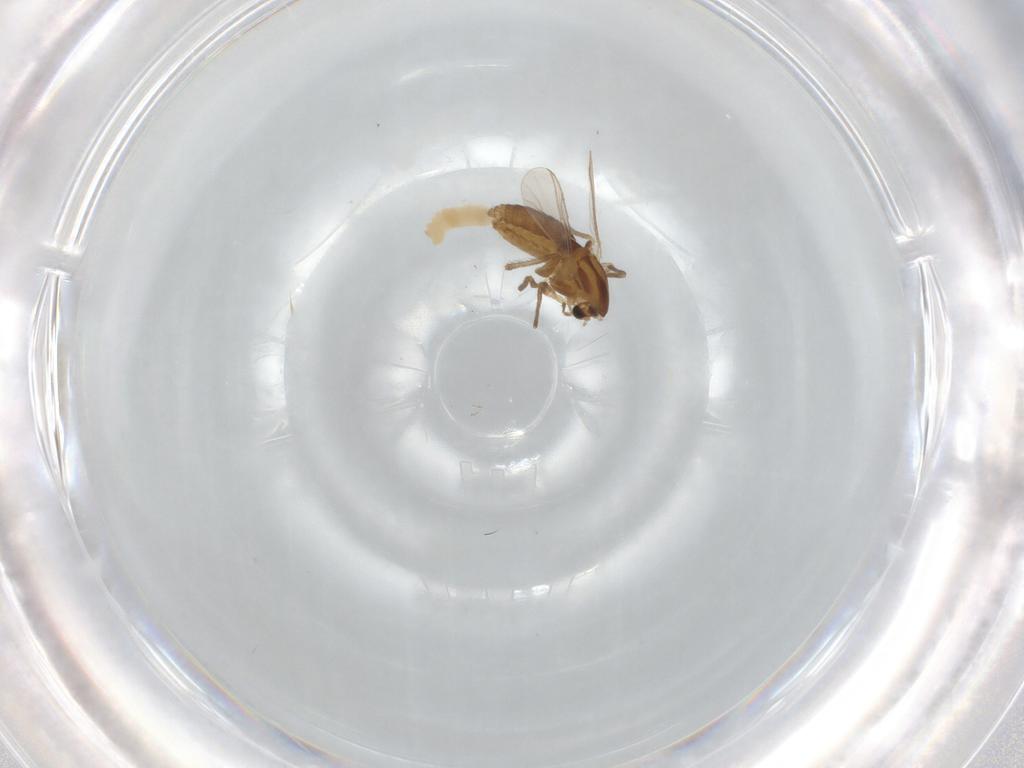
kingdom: Animalia
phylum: Arthropoda
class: Insecta
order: Diptera
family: Chironomidae
